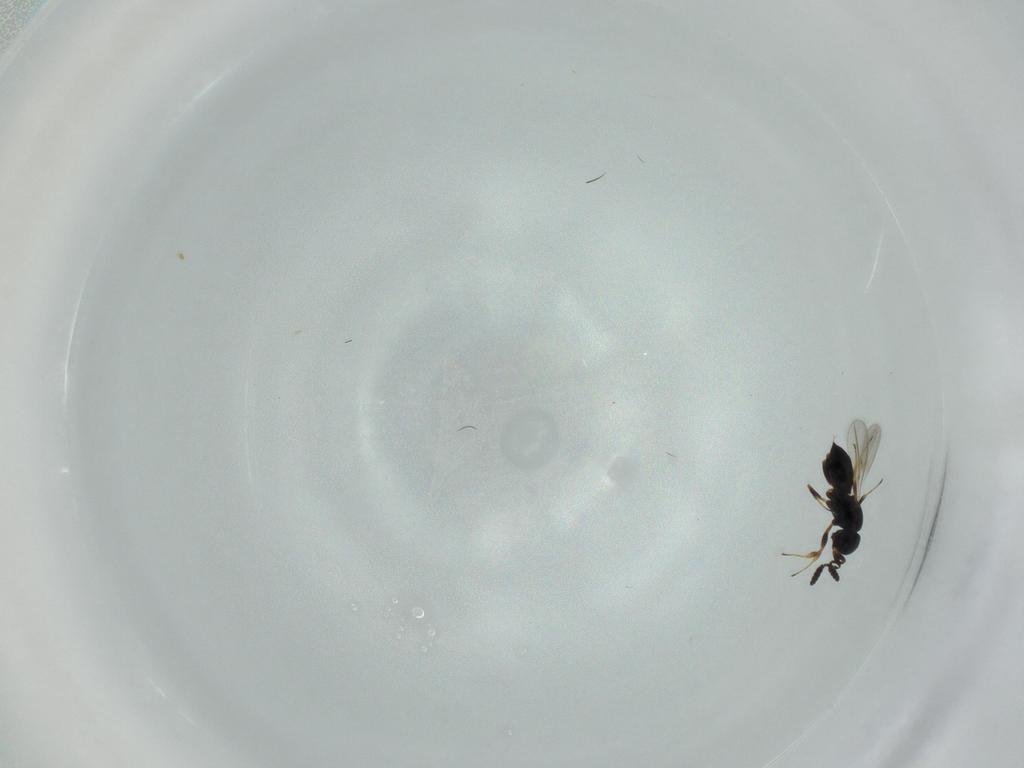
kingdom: Animalia
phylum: Arthropoda
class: Insecta
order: Hymenoptera
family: Scelionidae
